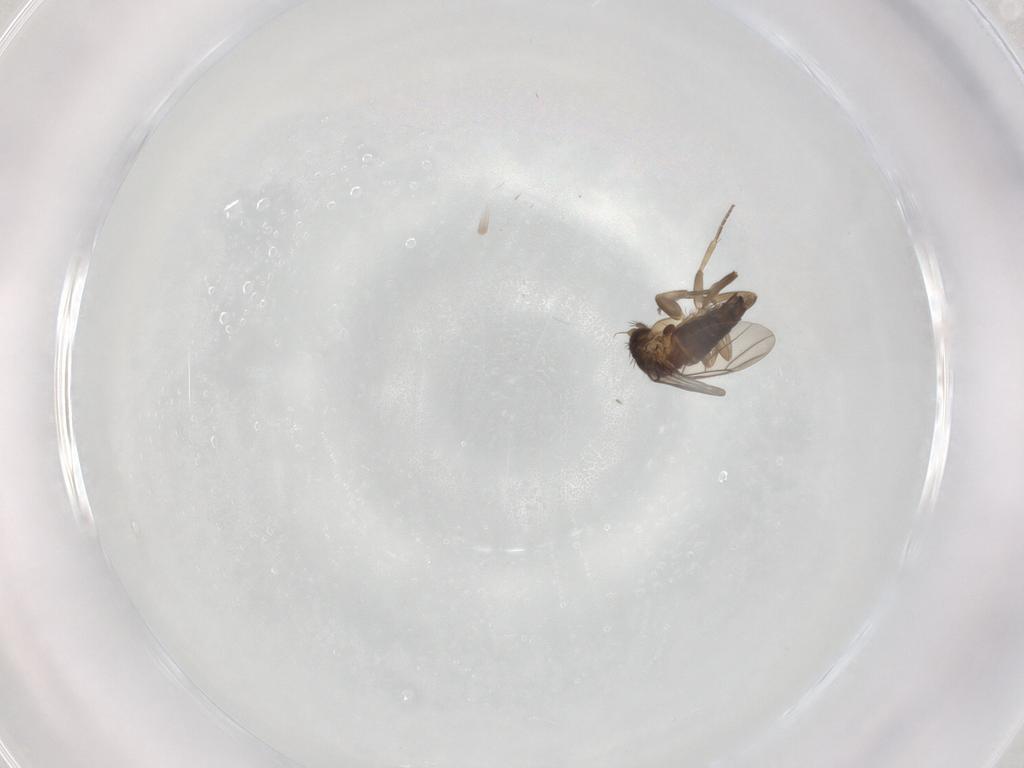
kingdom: Animalia
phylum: Arthropoda
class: Insecta
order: Diptera
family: Phoridae
